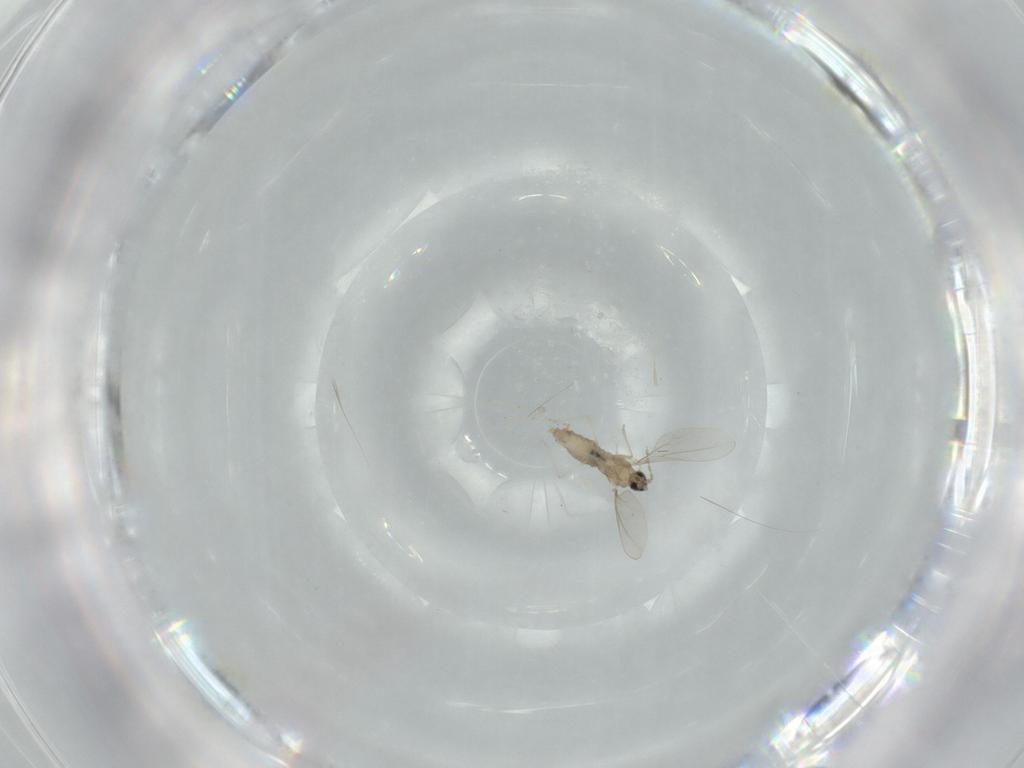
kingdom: Animalia
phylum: Arthropoda
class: Insecta
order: Diptera
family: Cecidomyiidae
